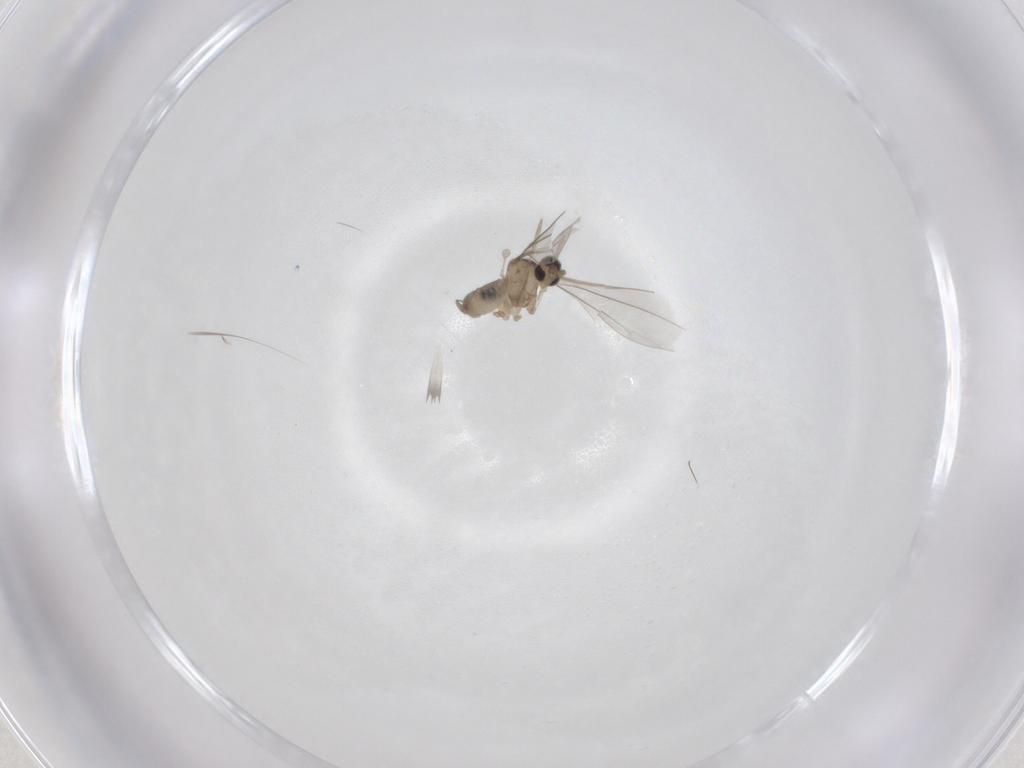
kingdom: Animalia
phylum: Arthropoda
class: Insecta
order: Diptera
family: Cecidomyiidae
